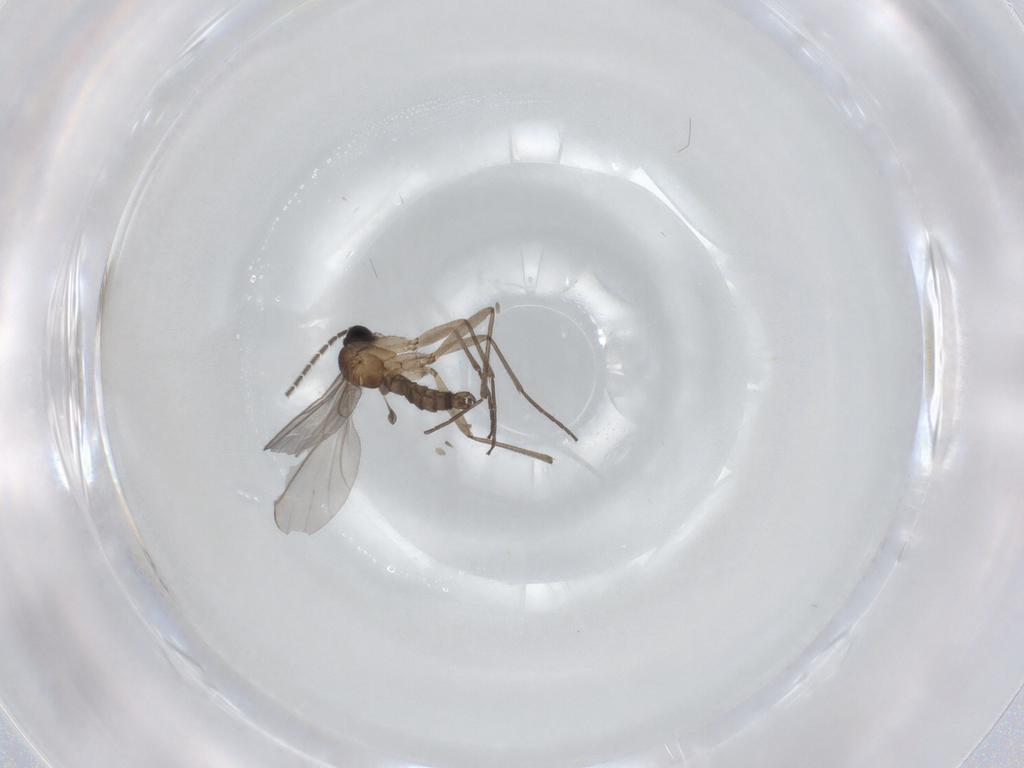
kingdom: Animalia
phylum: Arthropoda
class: Insecta
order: Diptera
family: Sciaridae
